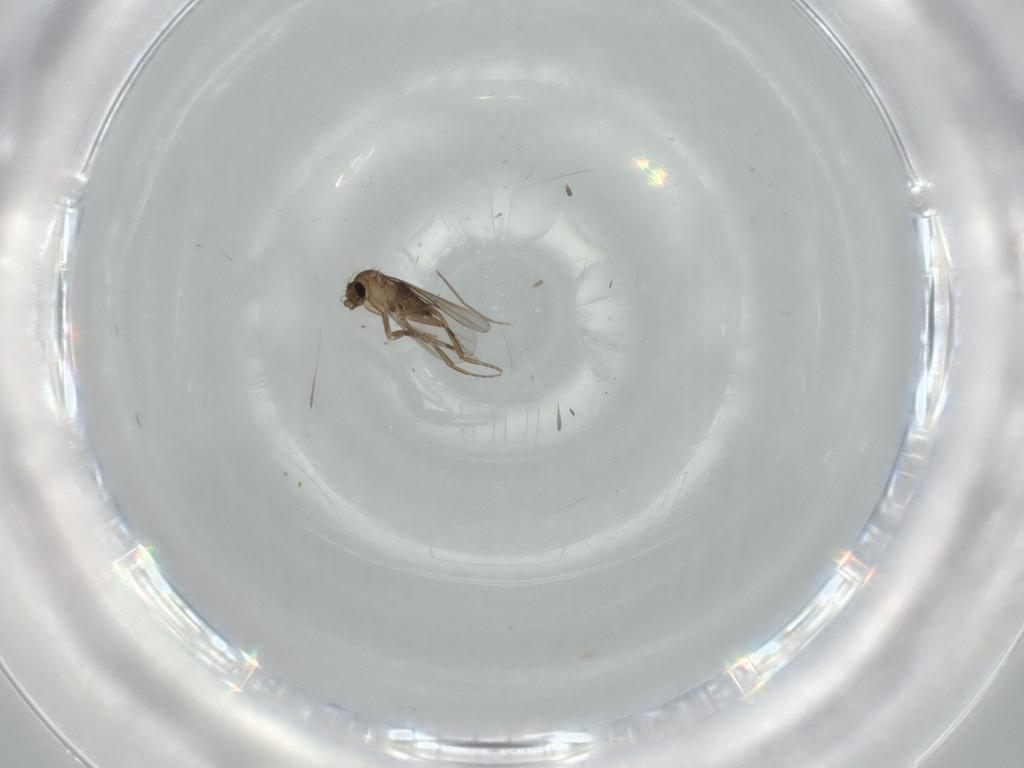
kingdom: Animalia
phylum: Arthropoda
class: Insecta
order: Diptera
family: Phoridae
